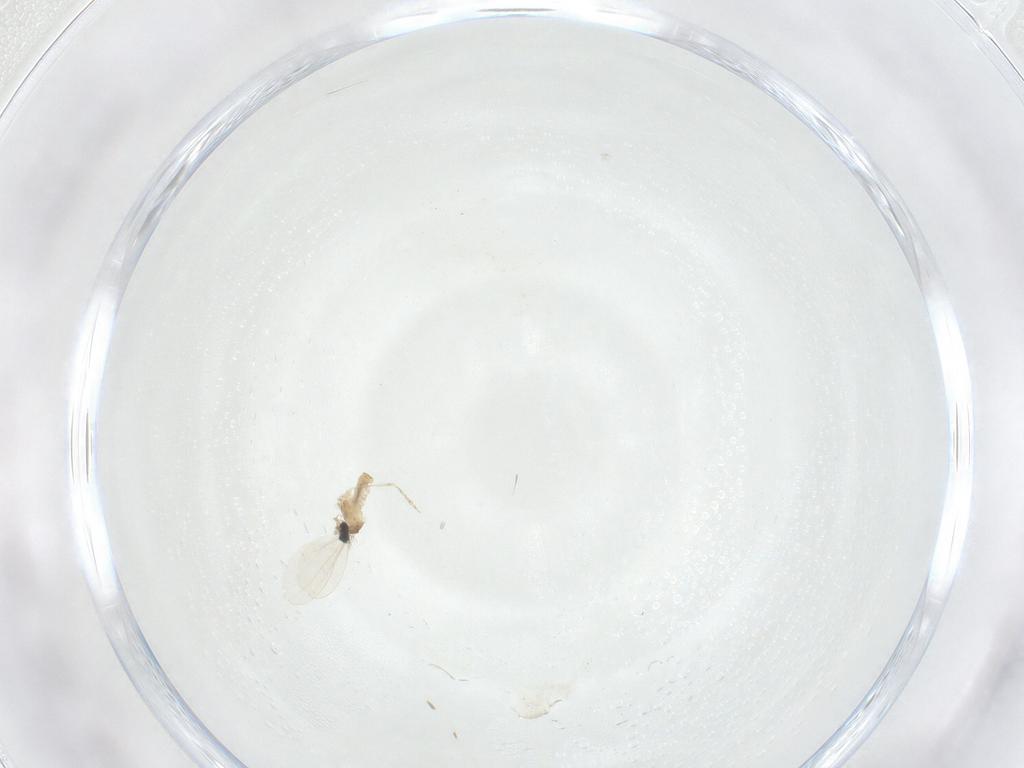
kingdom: Animalia
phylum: Arthropoda
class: Insecta
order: Diptera
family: Cecidomyiidae
